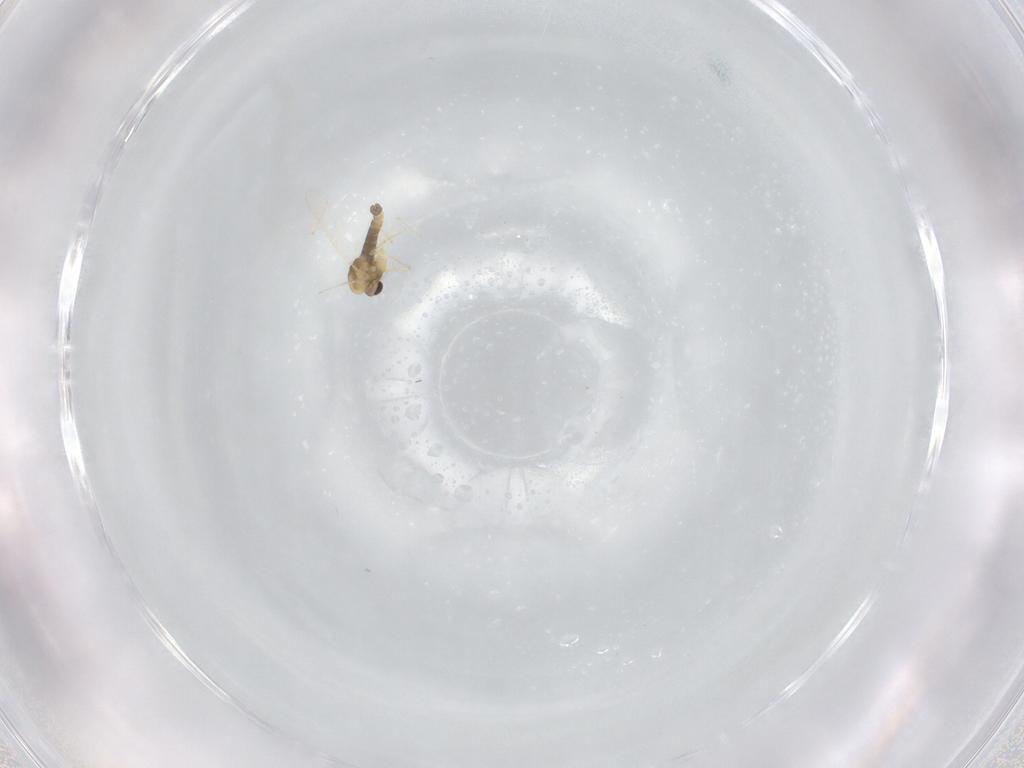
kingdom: Animalia
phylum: Arthropoda
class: Insecta
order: Diptera
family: Chironomidae
